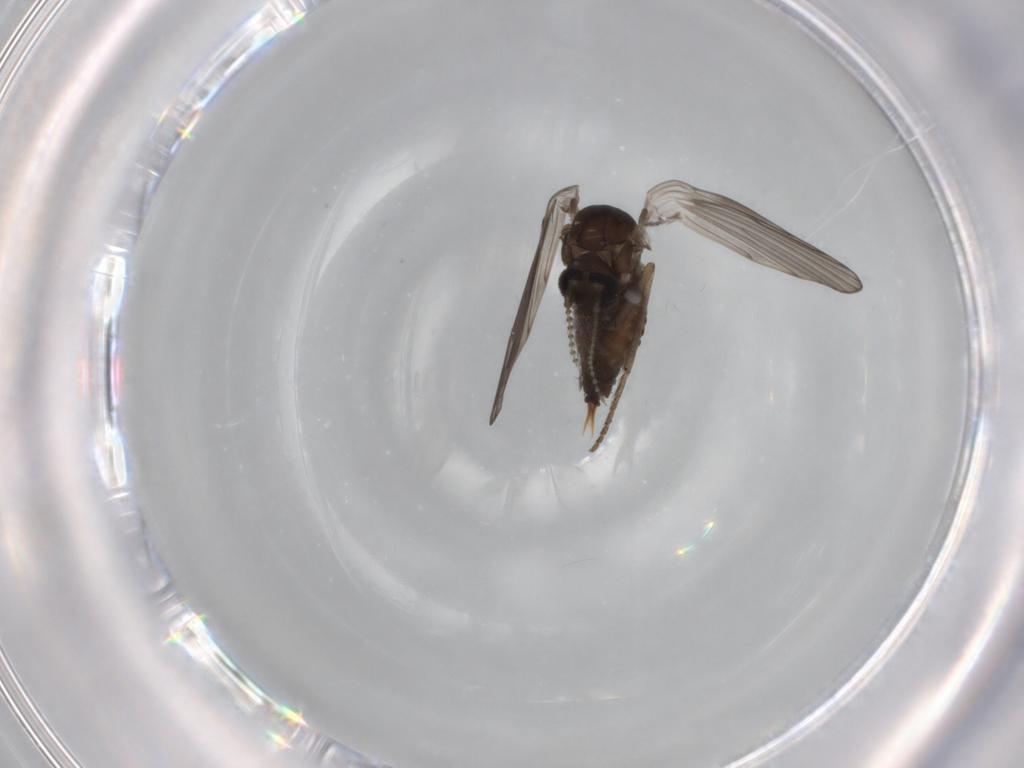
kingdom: Animalia
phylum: Arthropoda
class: Insecta
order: Diptera
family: Psychodidae
